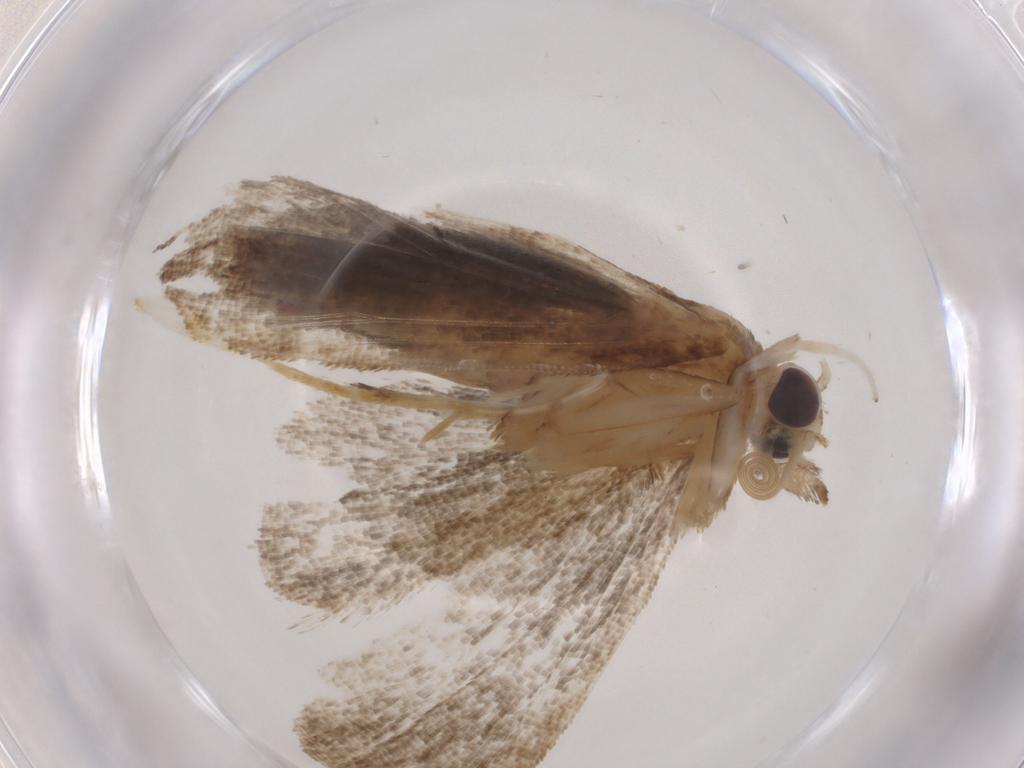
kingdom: Animalia
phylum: Arthropoda
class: Insecta
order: Lepidoptera
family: Gelechiidae
